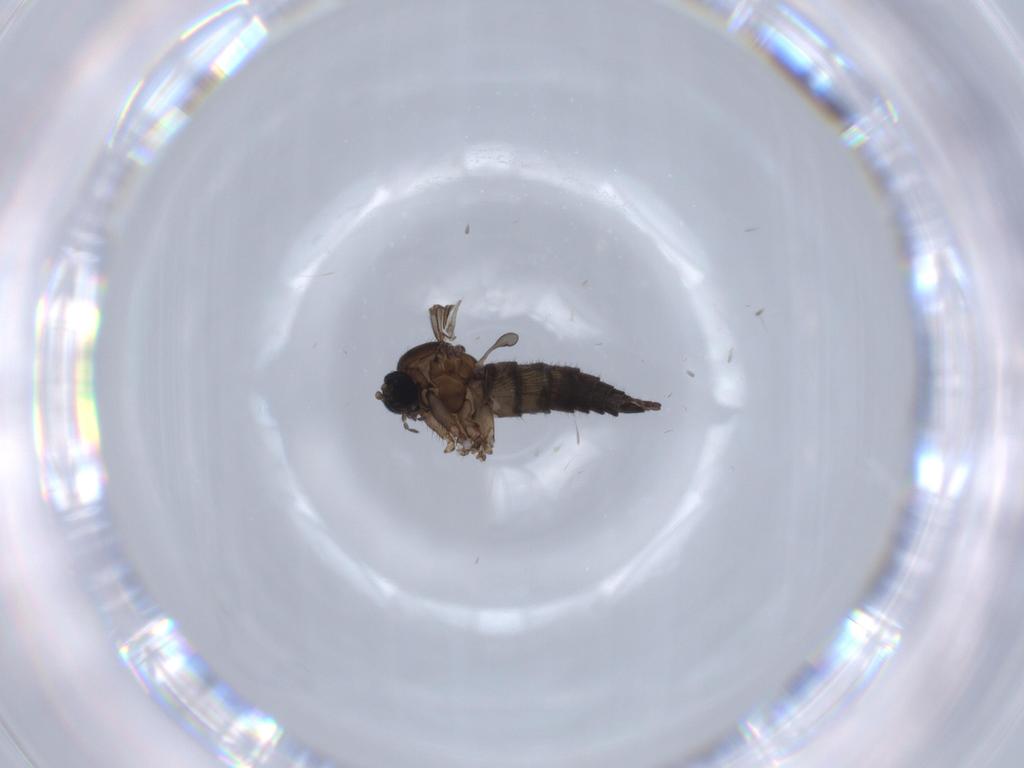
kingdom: Animalia
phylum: Arthropoda
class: Insecta
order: Diptera
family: Sciaridae
